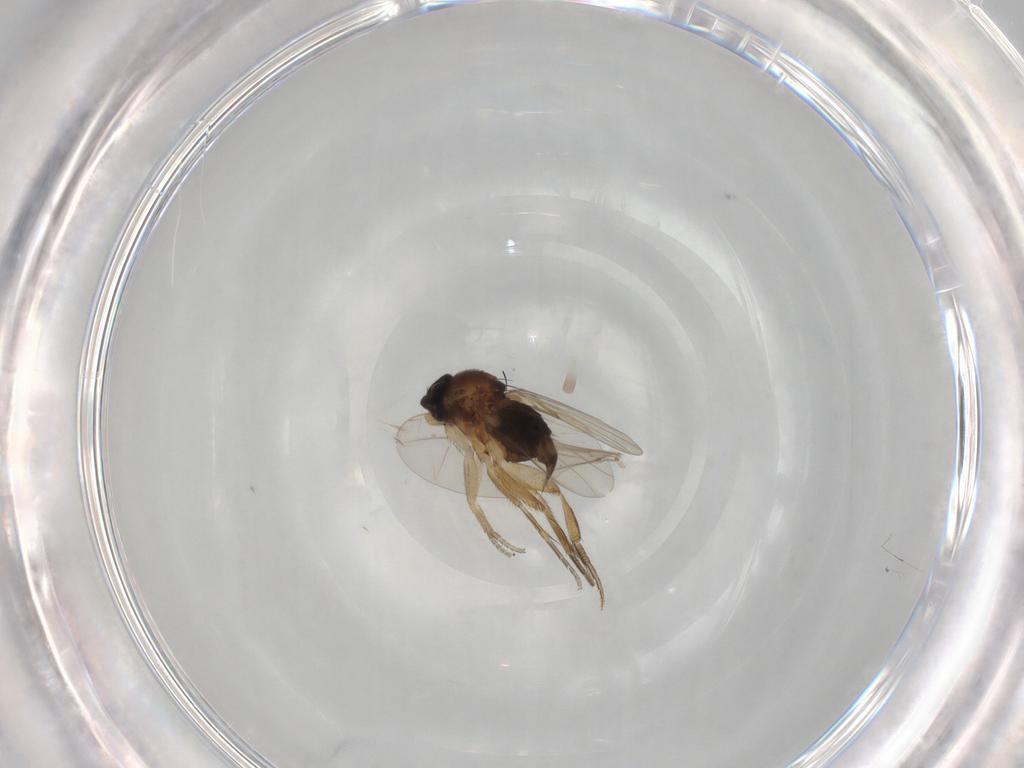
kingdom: Animalia
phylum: Arthropoda
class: Insecta
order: Diptera
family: Phoridae
